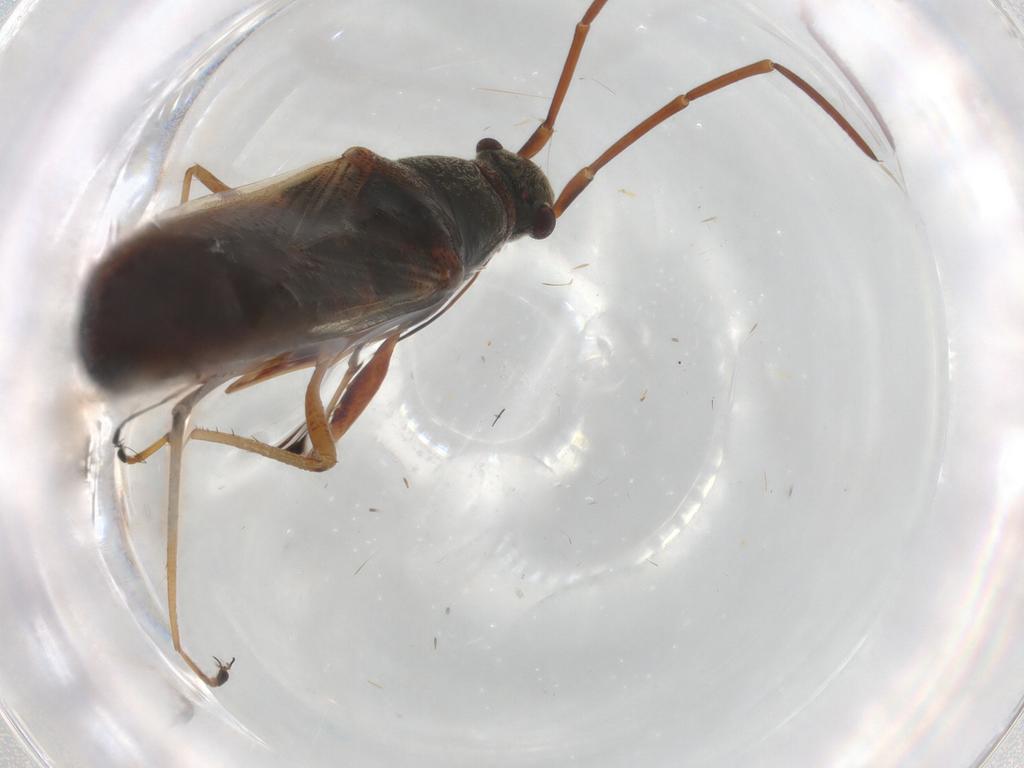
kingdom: Animalia
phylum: Arthropoda
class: Insecta
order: Hemiptera
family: Rhyparochromidae
